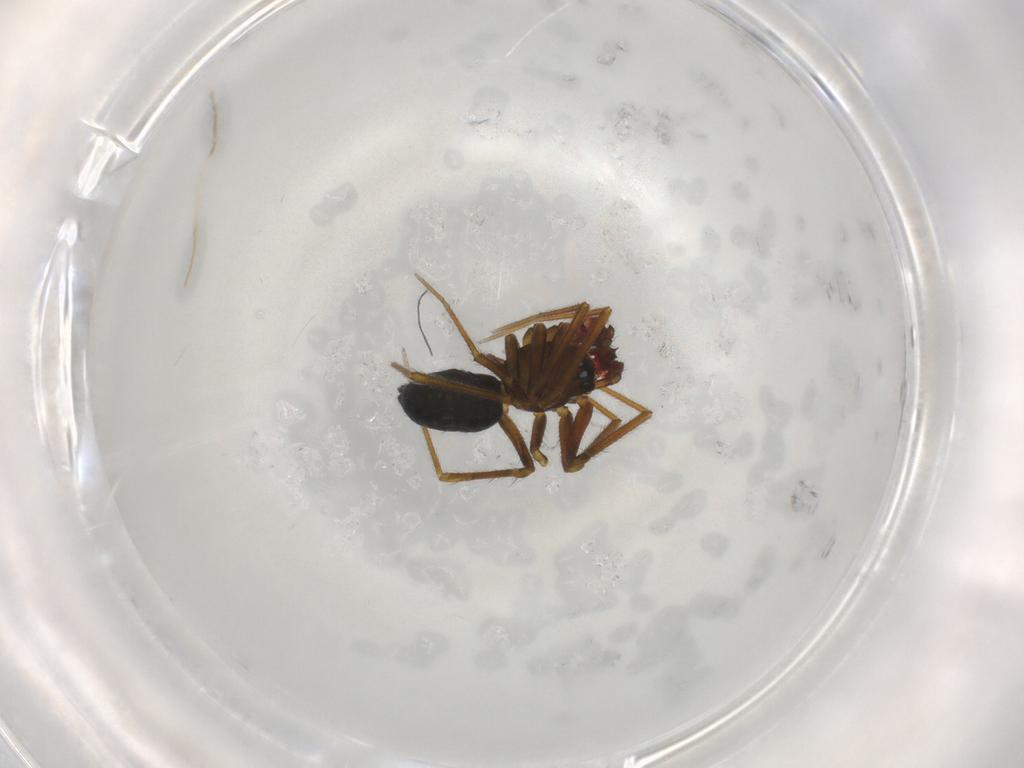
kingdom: Animalia
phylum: Arthropoda
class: Arachnida
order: Araneae
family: Linyphiidae
